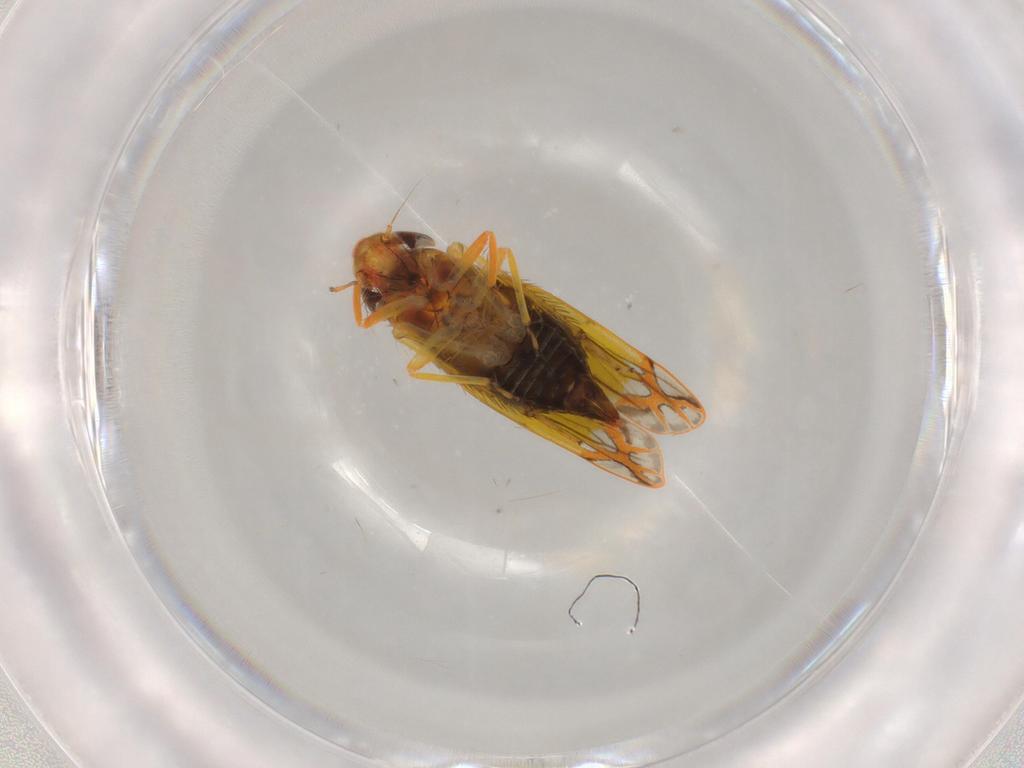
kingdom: Animalia
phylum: Arthropoda
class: Insecta
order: Hemiptera
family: Cicadellidae
